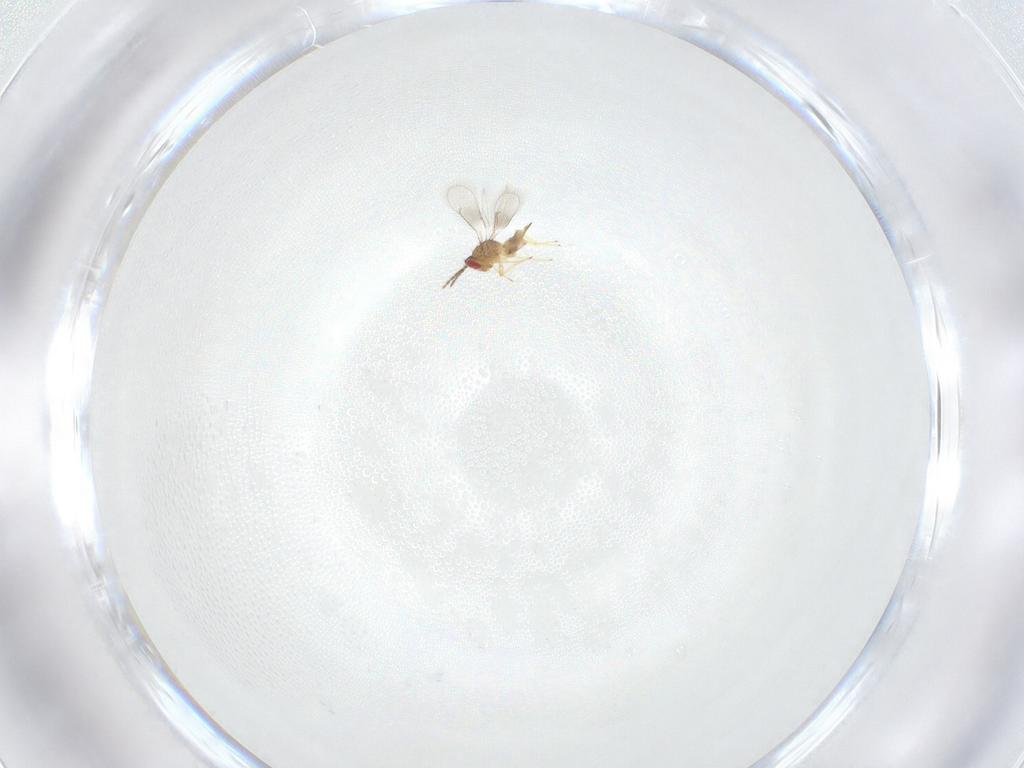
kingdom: Animalia
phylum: Arthropoda
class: Insecta
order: Hymenoptera
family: Eulophidae
